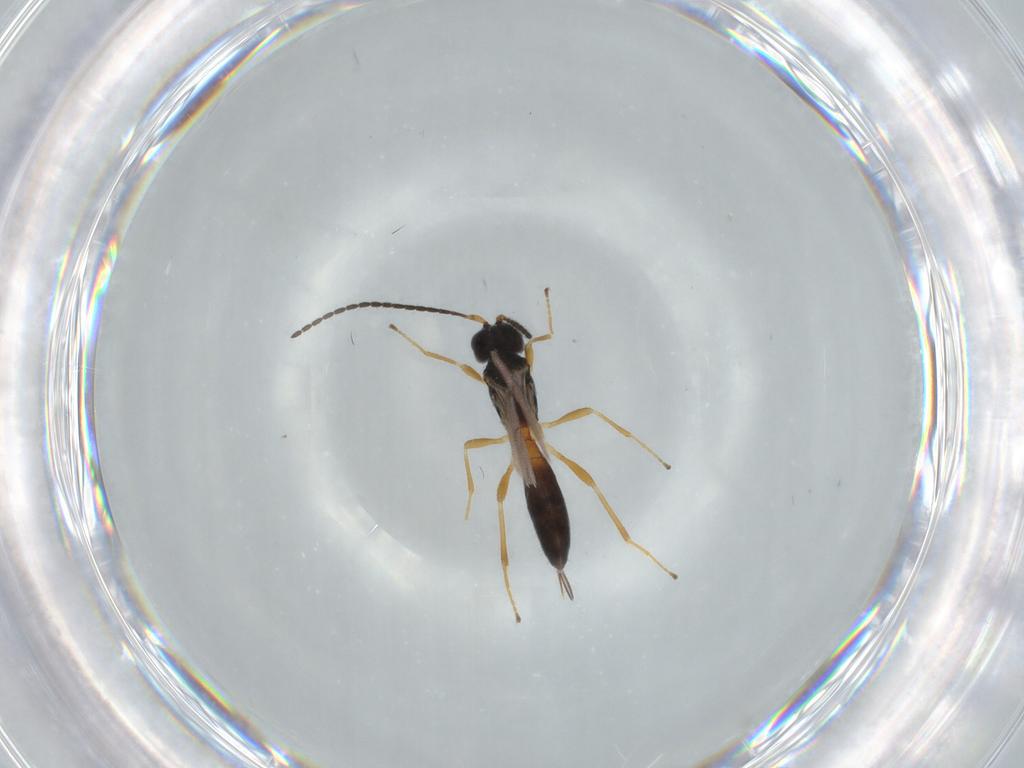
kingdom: Animalia
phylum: Arthropoda
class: Insecta
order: Hymenoptera
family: Braconidae
